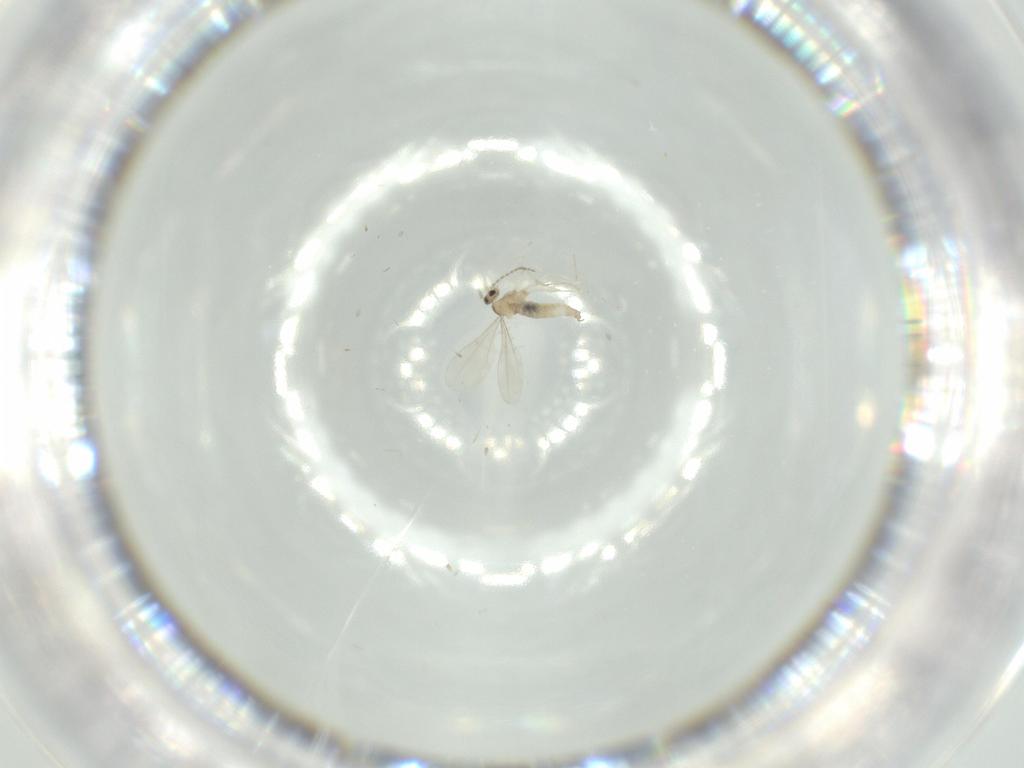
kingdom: Animalia
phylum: Arthropoda
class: Insecta
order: Diptera
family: Cecidomyiidae
